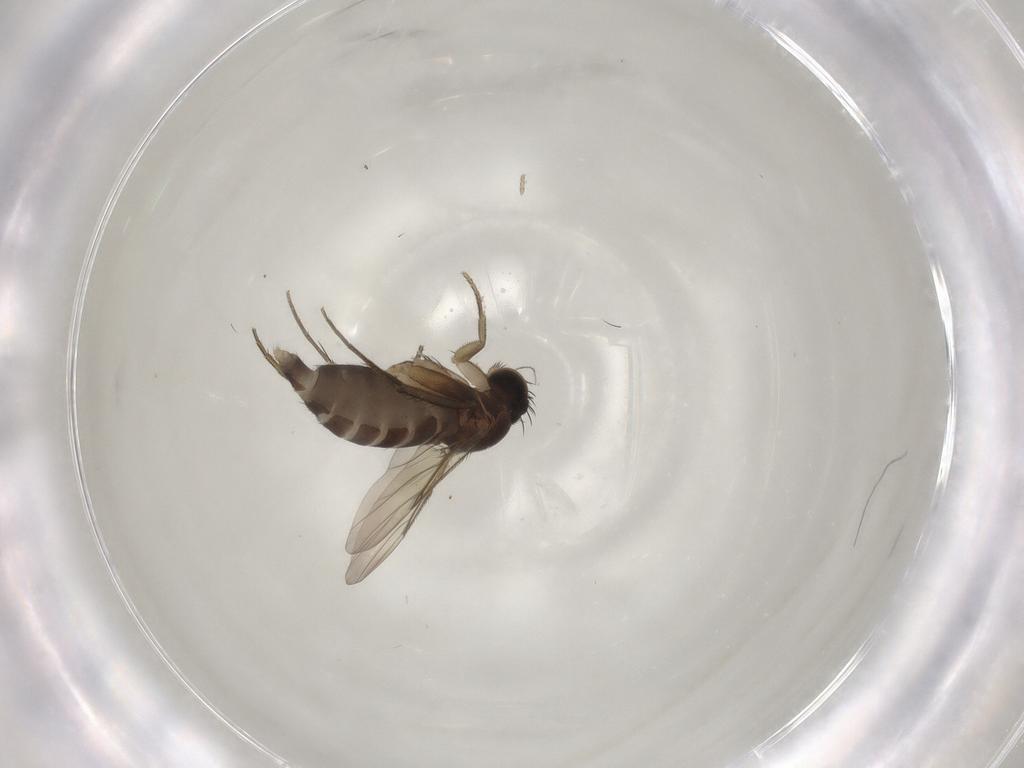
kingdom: Animalia
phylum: Arthropoda
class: Insecta
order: Diptera
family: Phoridae
